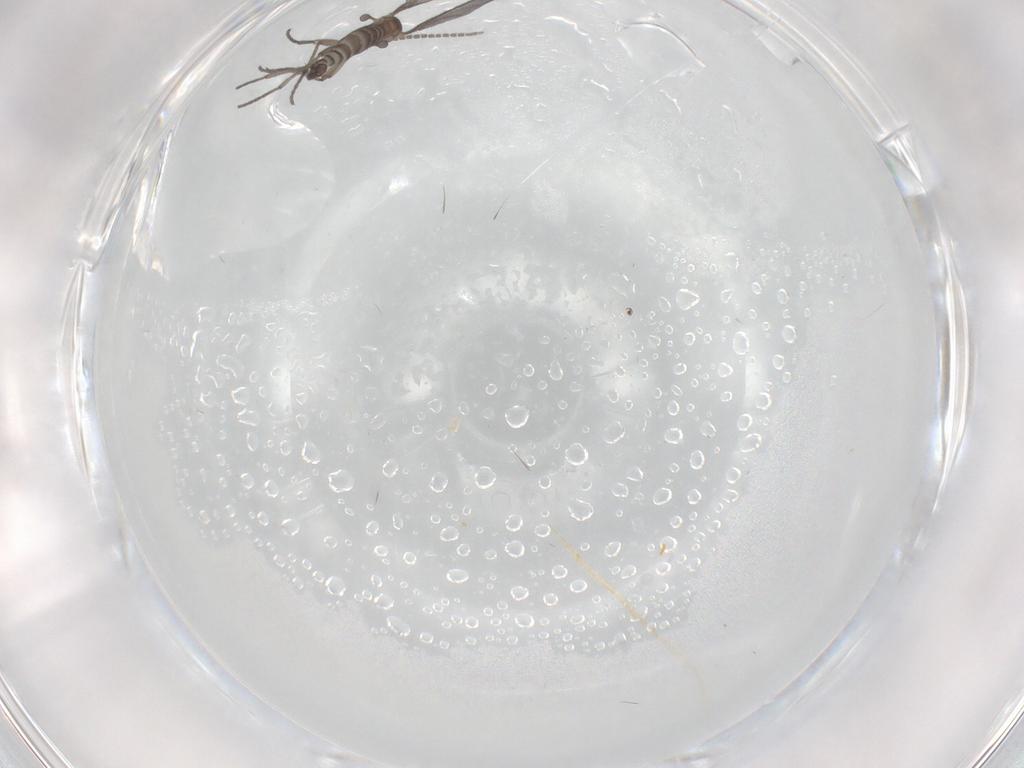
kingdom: Animalia
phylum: Arthropoda
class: Insecta
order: Diptera
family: Sciaridae
